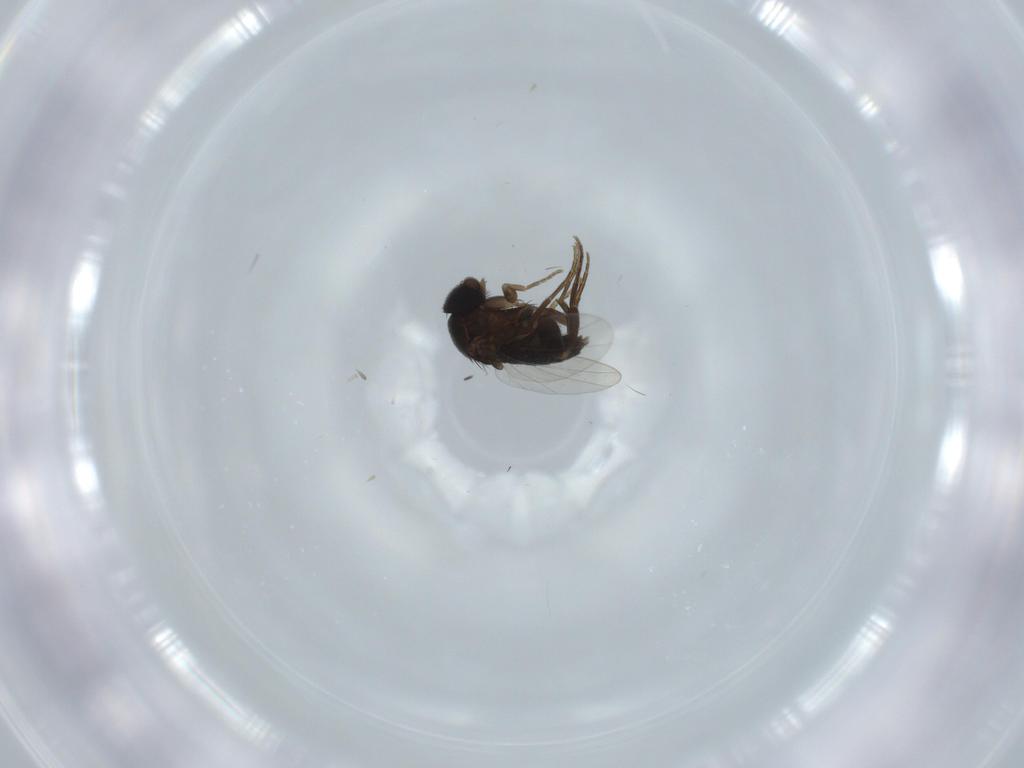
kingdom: Animalia
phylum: Arthropoda
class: Insecta
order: Diptera
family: Phoridae
